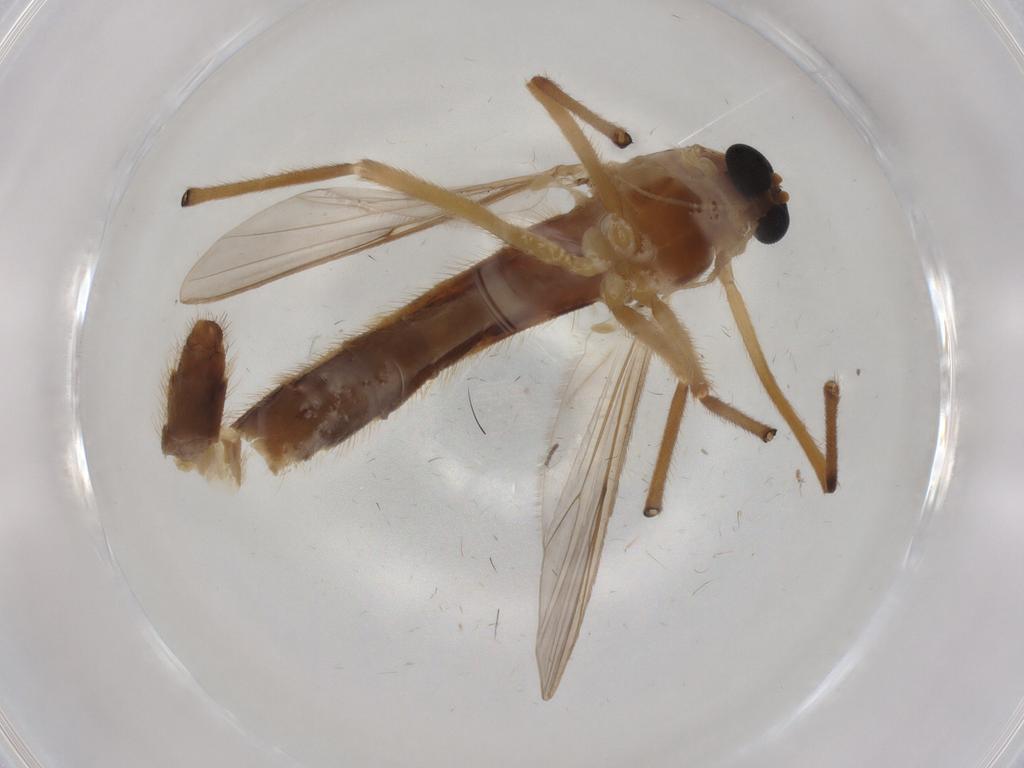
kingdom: Animalia
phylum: Arthropoda
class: Insecta
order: Diptera
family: Chironomidae
